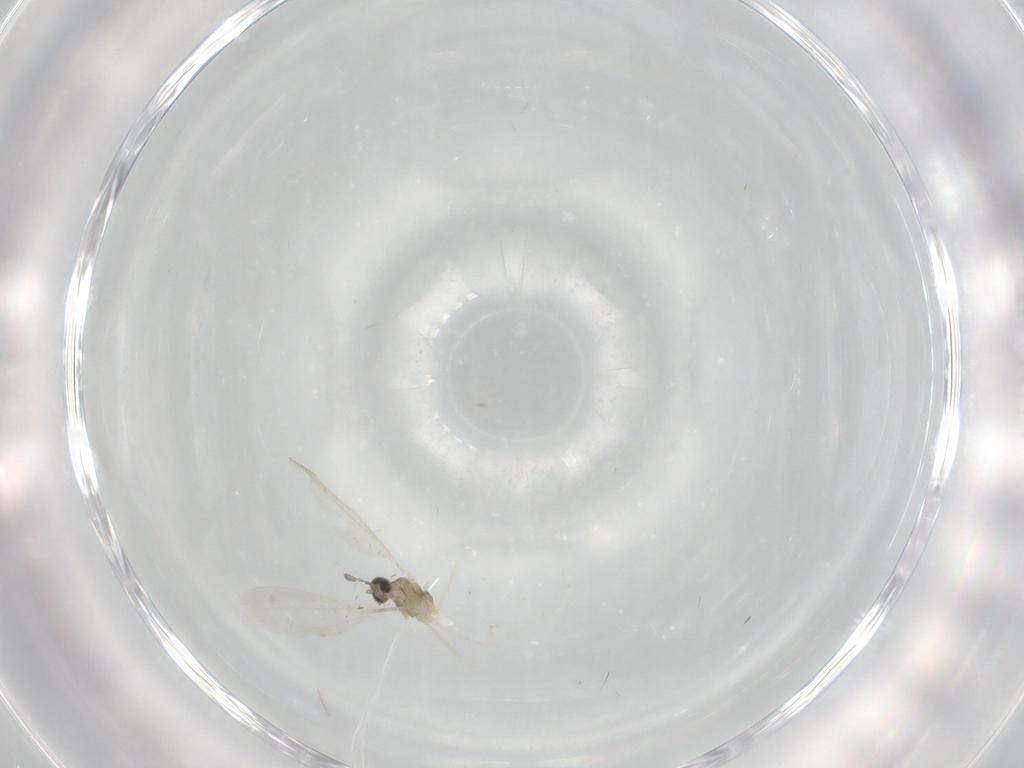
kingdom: Animalia
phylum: Arthropoda
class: Insecta
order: Diptera
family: Cecidomyiidae
